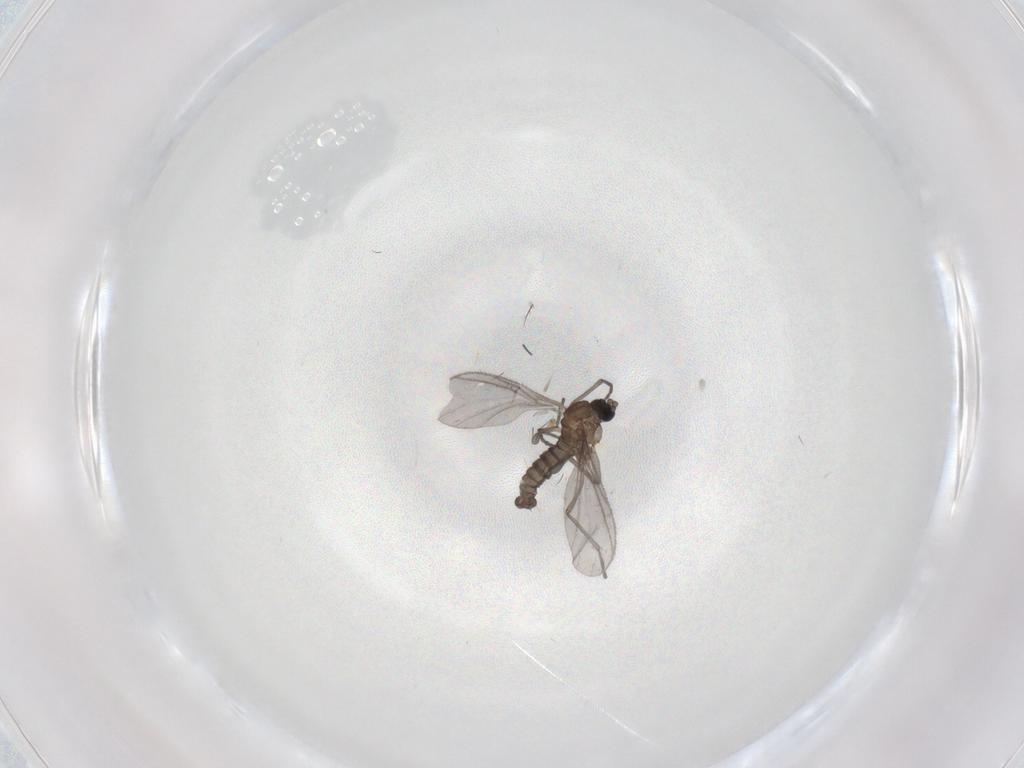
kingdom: Animalia
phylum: Arthropoda
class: Insecta
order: Diptera
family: Sciaridae
